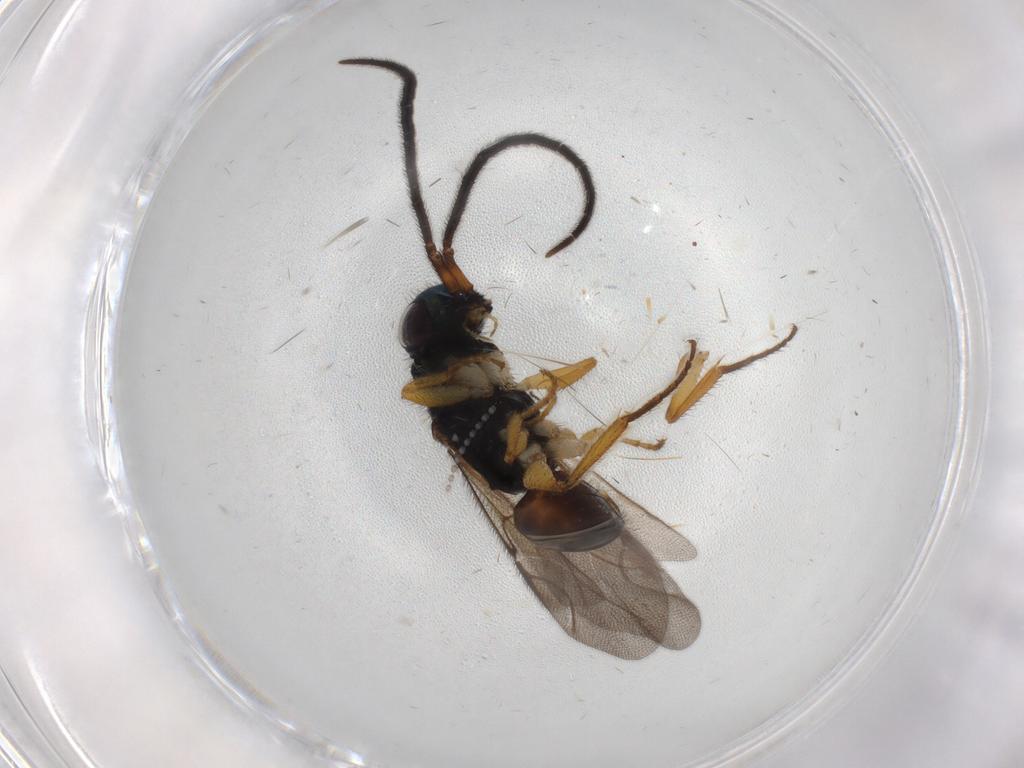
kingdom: Animalia
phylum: Arthropoda
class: Insecta
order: Hymenoptera
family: Chrysididae
